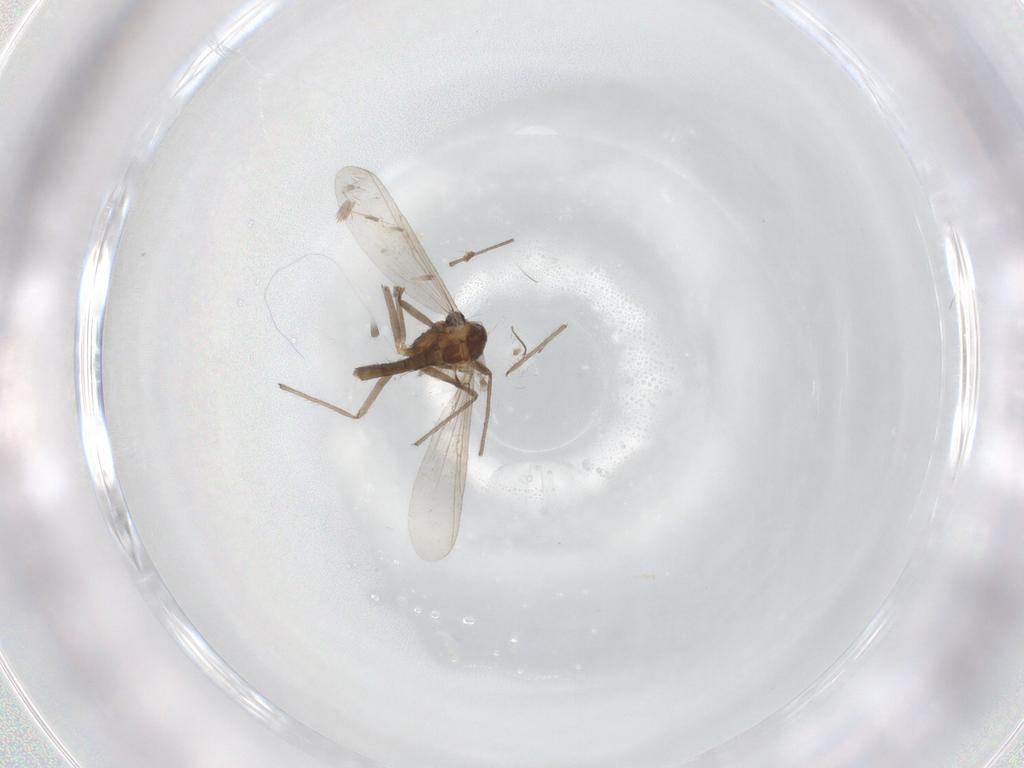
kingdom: Animalia
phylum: Arthropoda
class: Insecta
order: Diptera
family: Chironomidae
